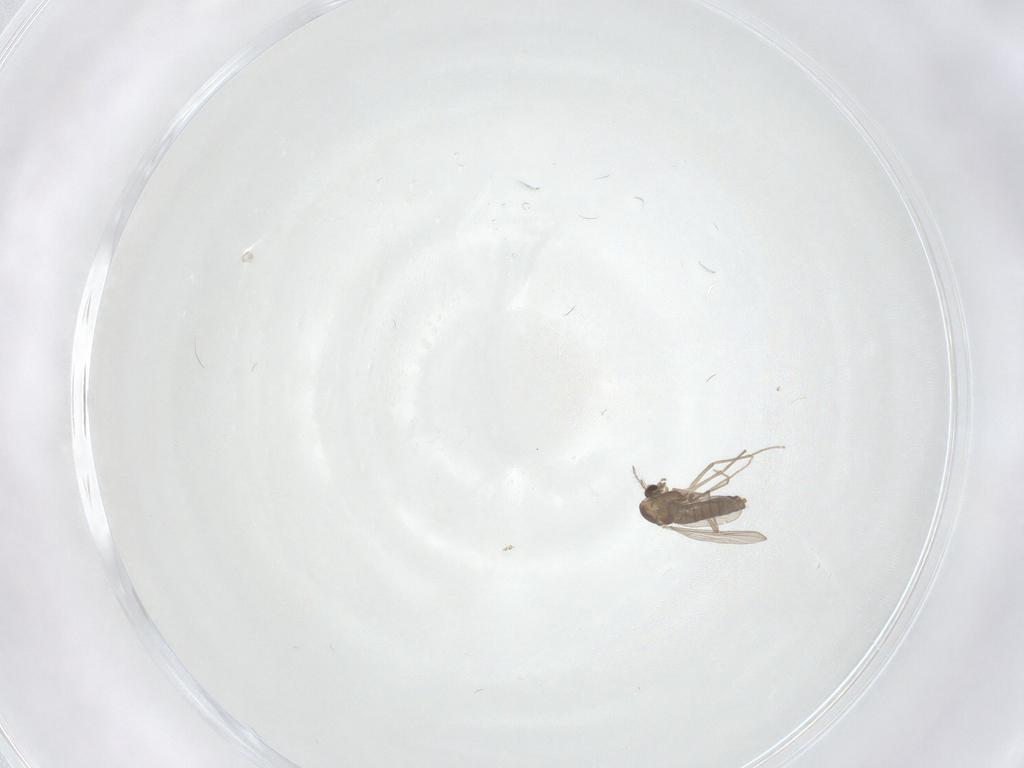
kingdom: Animalia
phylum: Arthropoda
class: Insecta
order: Diptera
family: Chironomidae
